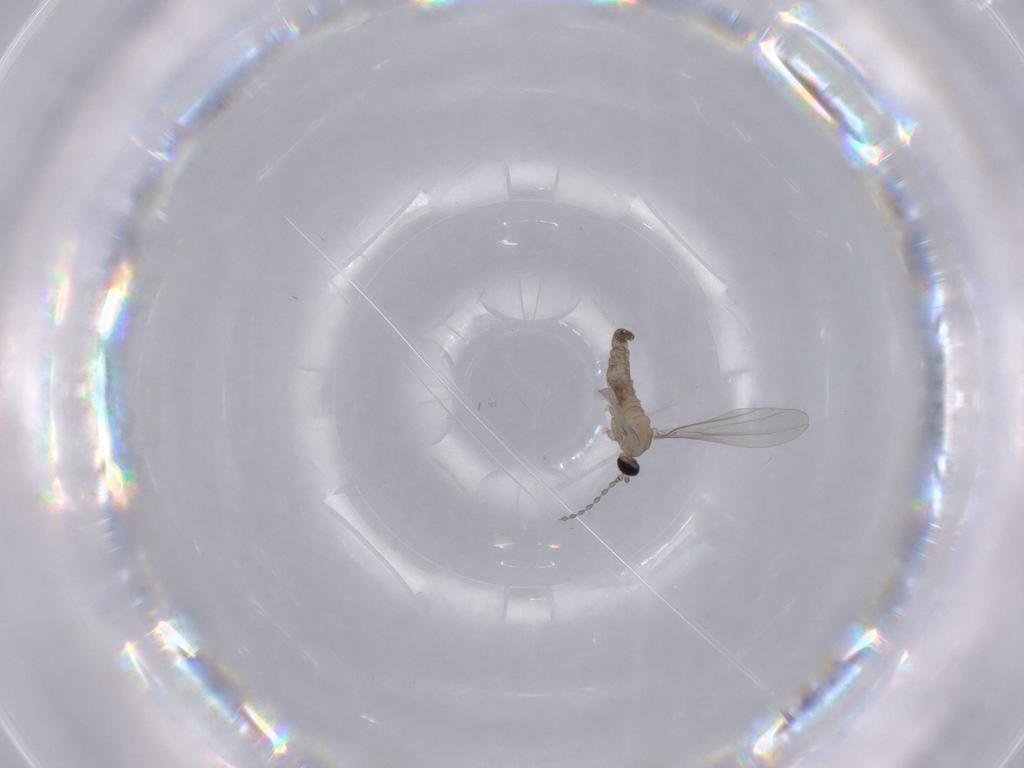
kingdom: Animalia
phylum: Arthropoda
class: Insecta
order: Diptera
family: Cecidomyiidae
